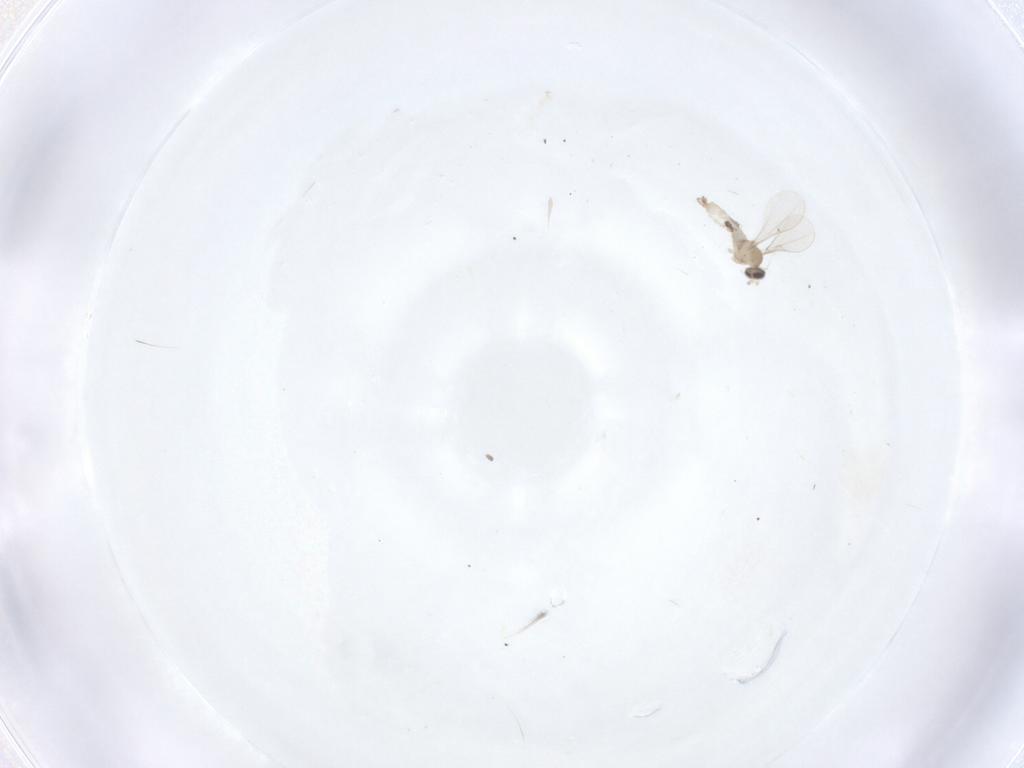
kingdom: Animalia
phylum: Arthropoda
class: Insecta
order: Diptera
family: Cecidomyiidae
